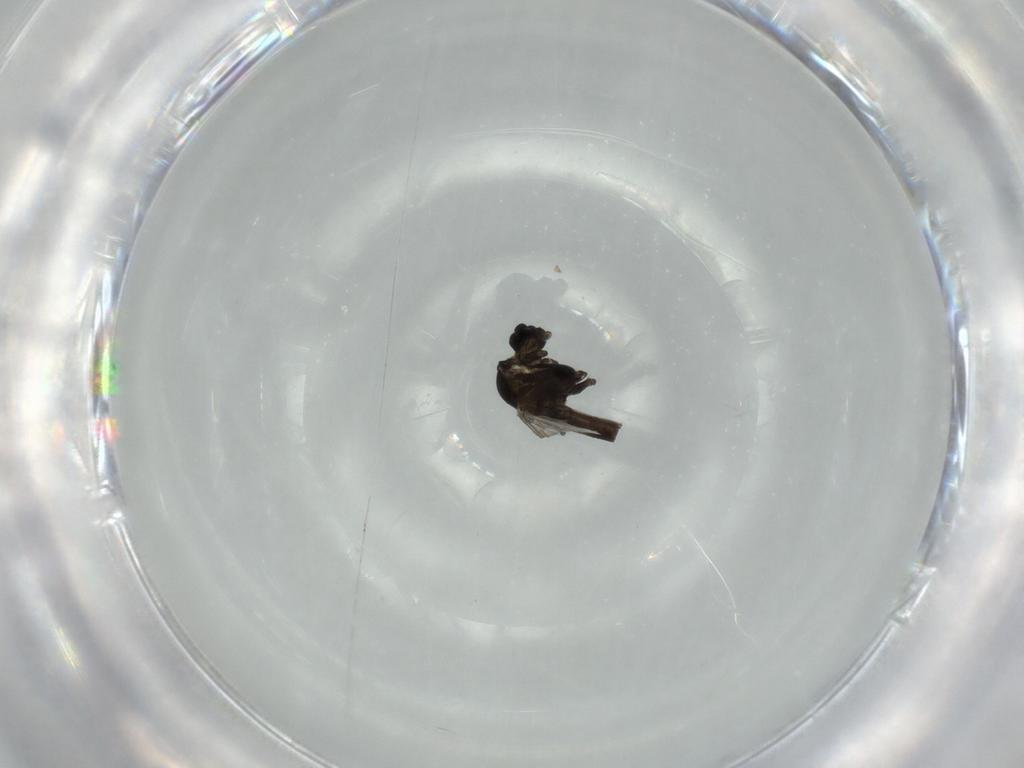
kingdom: Animalia
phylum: Arthropoda
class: Insecta
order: Diptera
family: Chironomidae
